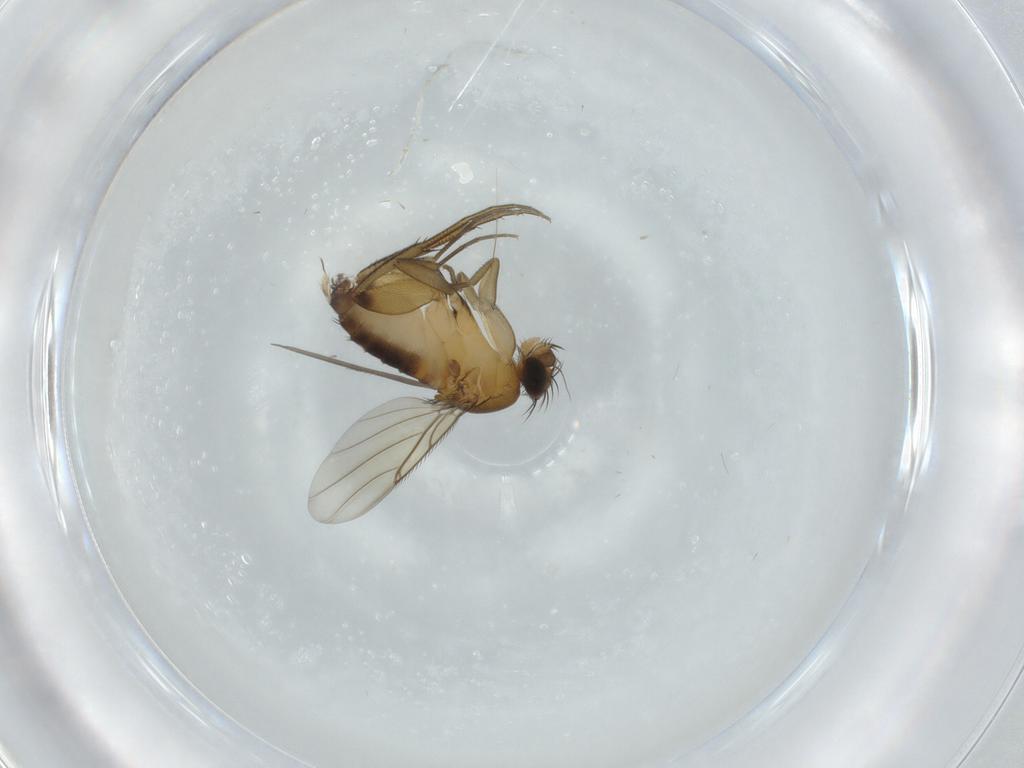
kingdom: Animalia
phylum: Arthropoda
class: Insecta
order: Diptera
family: Phoridae
